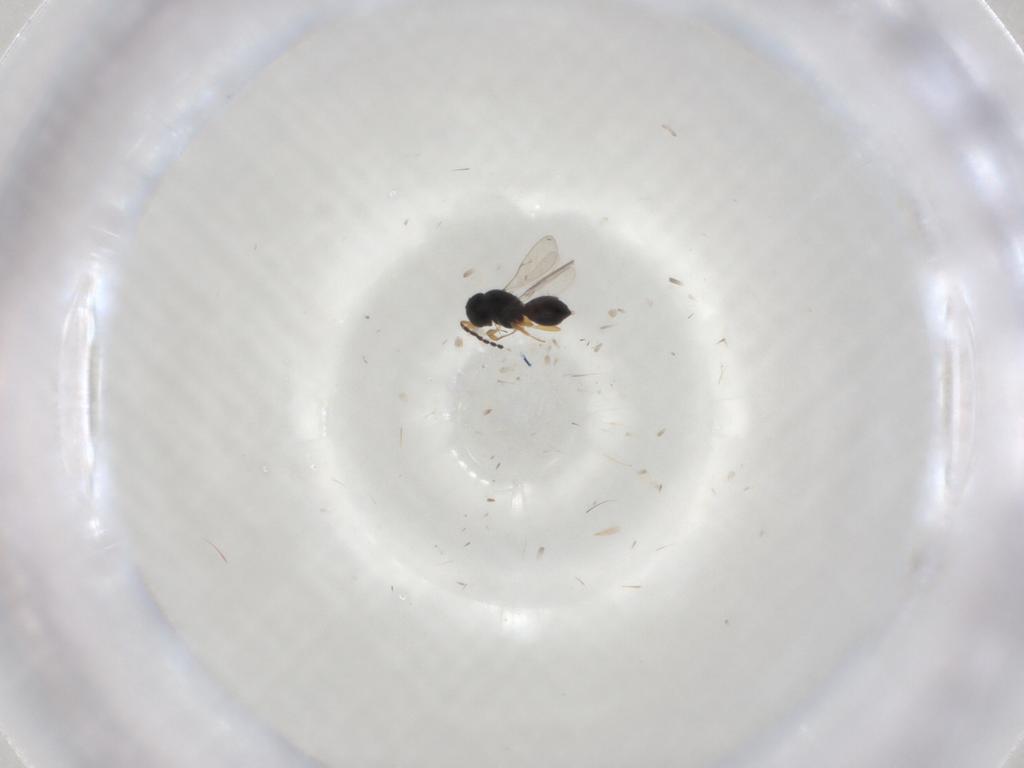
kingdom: Animalia
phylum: Arthropoda
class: Insecta
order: Hymenoptera
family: Scelionidae
